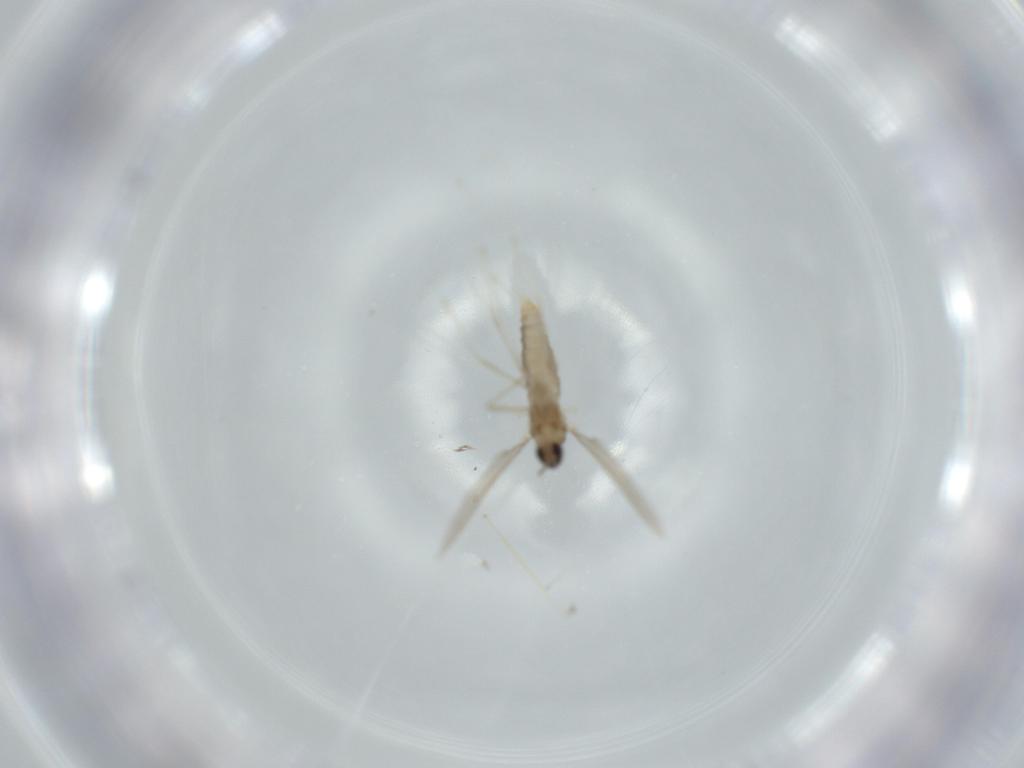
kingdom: Animalia
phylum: Arthropoda
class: Insecta
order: Diptera
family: Cecidomyiidae
